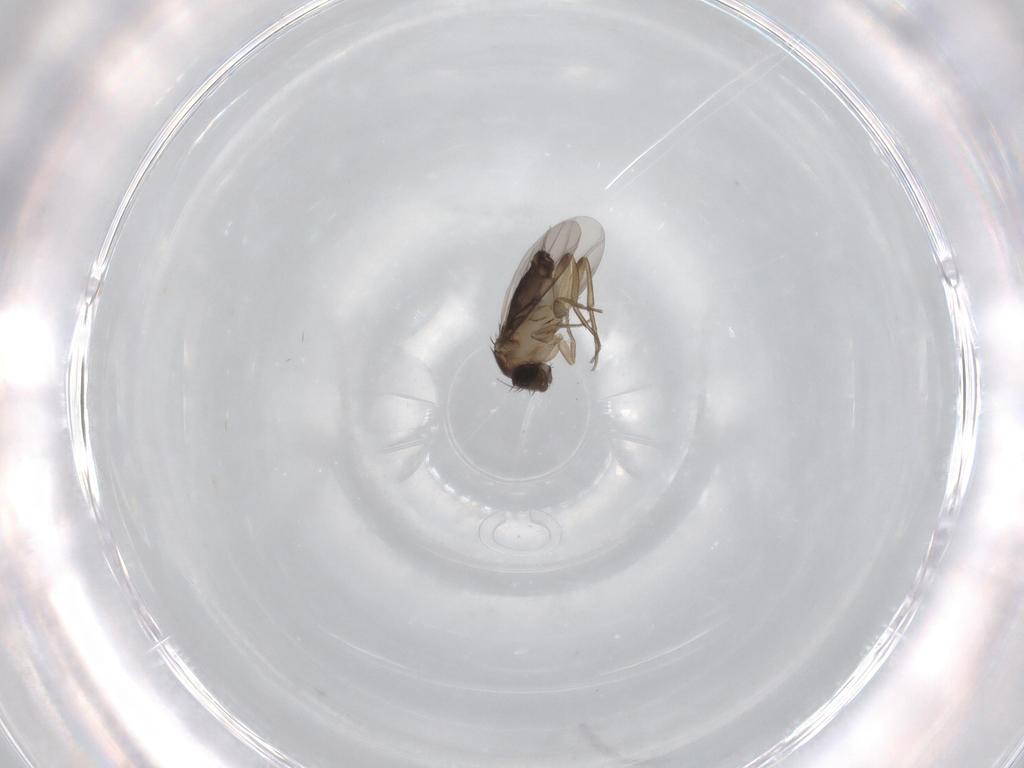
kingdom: Animalia
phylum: Arthropoda
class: Insecta
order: Diptera
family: Phoridae
